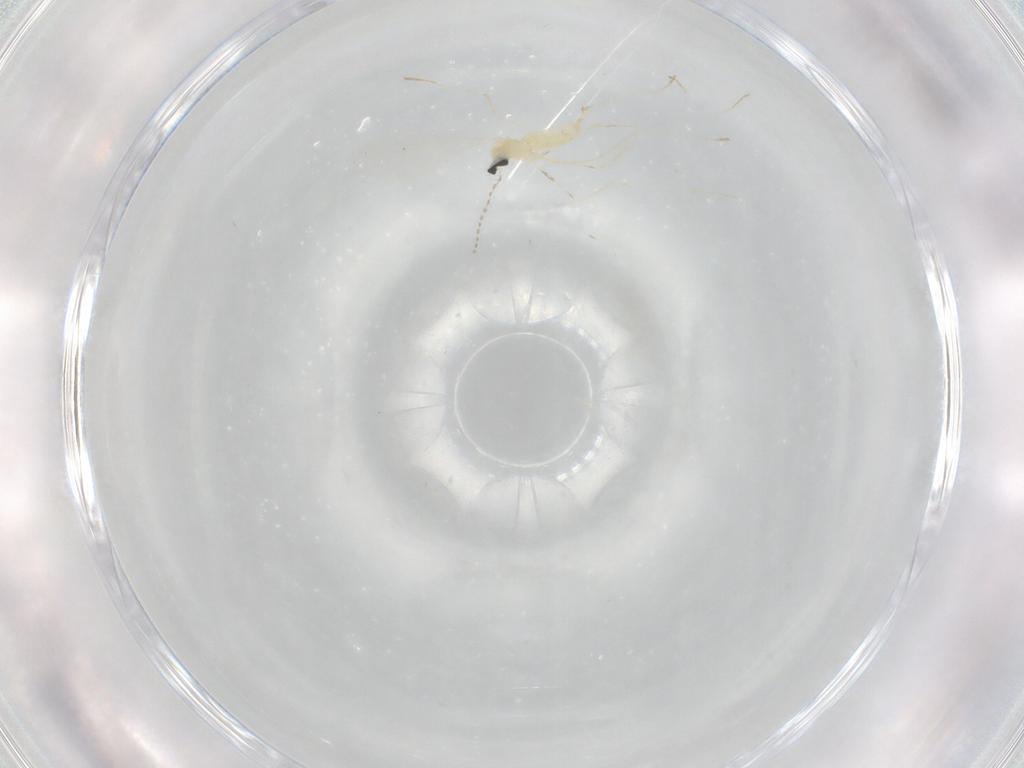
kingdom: Animalia
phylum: Arthropoda
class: Insecta
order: Diptera
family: Cecidomyiidae
